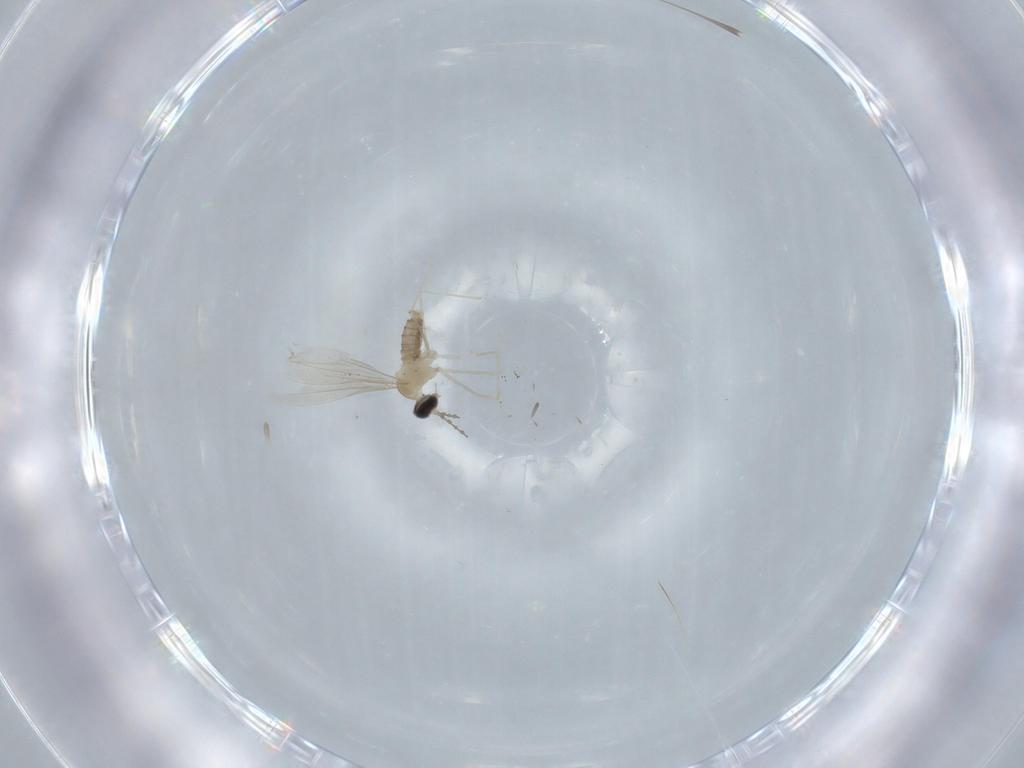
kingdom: Animalia
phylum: Arthropoda
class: Insecta
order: Diptera
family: Cecidomyiidae
